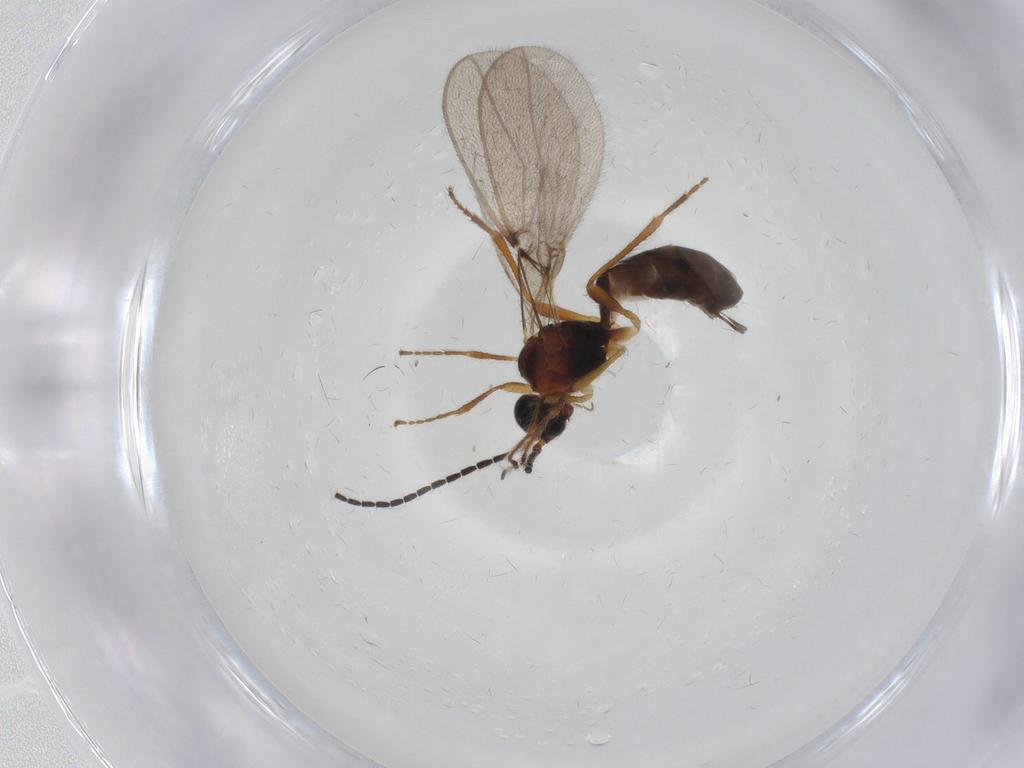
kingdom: Animalia
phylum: Arthropoda
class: Insecta
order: Hymenoptera
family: Braconidae
